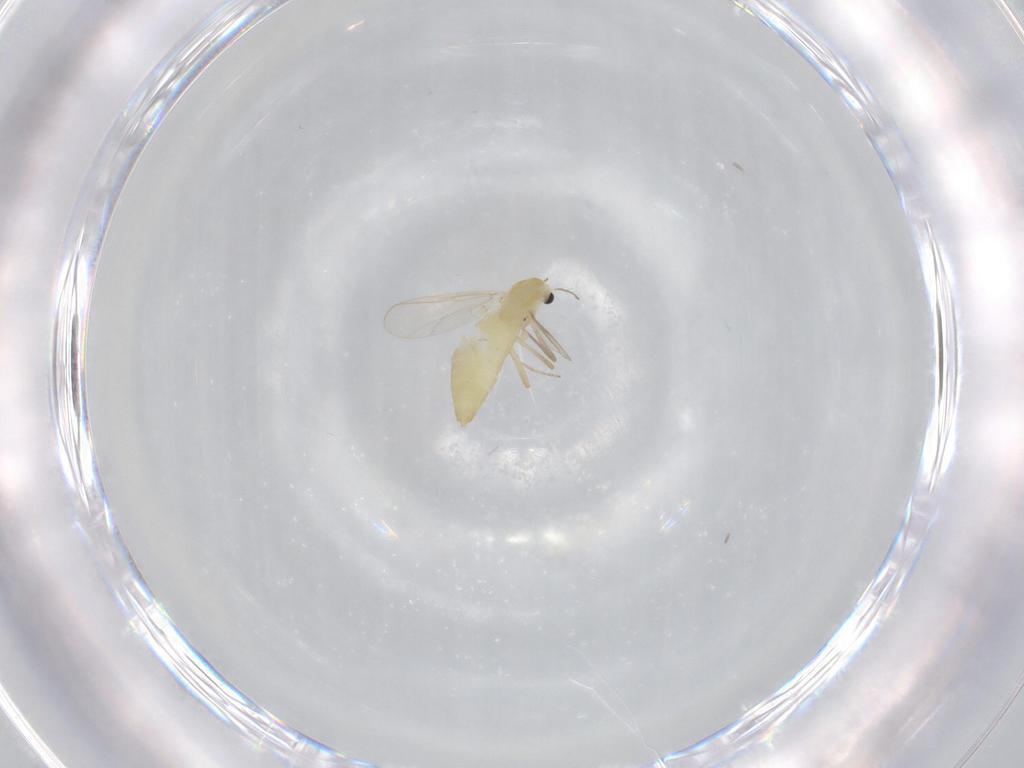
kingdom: Animalia
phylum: Arthropoda
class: Insecta
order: Diptera
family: Chironomidae
